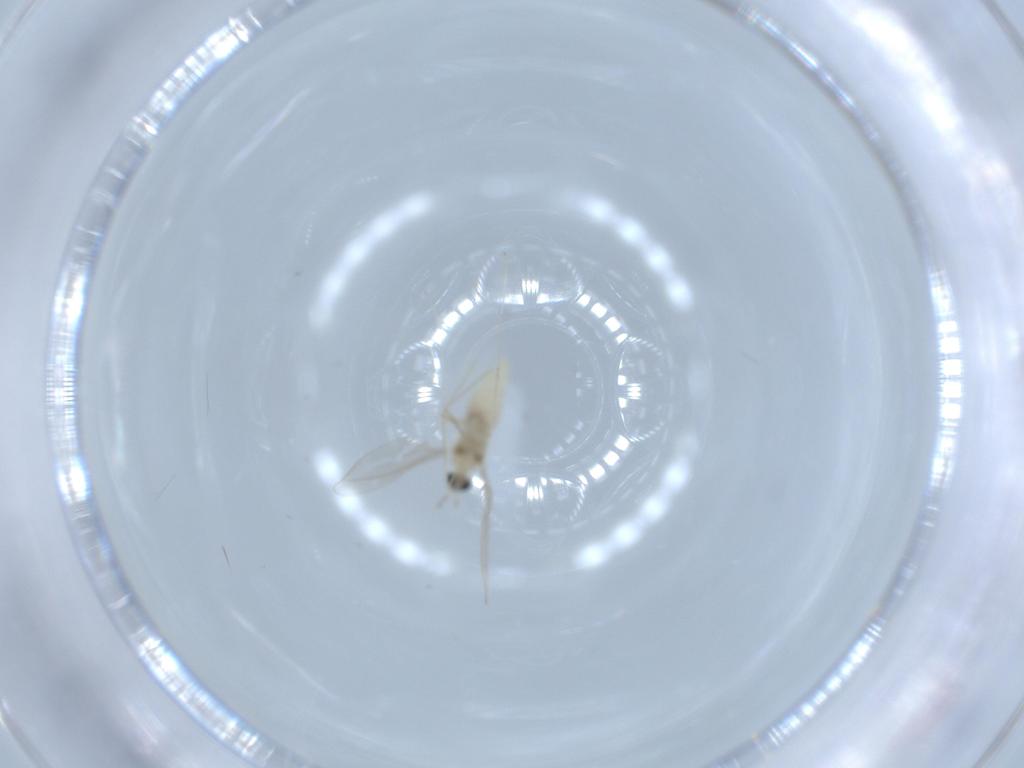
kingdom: Animalia
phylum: Arthropoda
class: Insecta
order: Diptera
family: Cecidomyiidae
